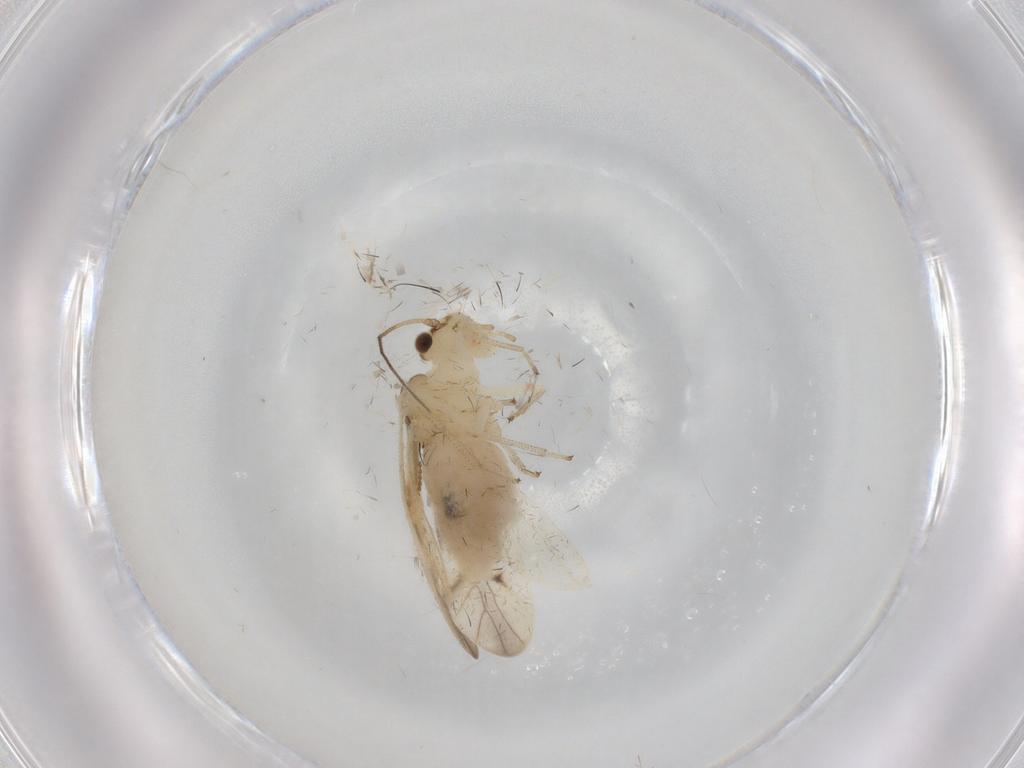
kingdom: Animalia
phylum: Arthropoda
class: Insecta
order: Psocodea
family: Caeciliusidae
